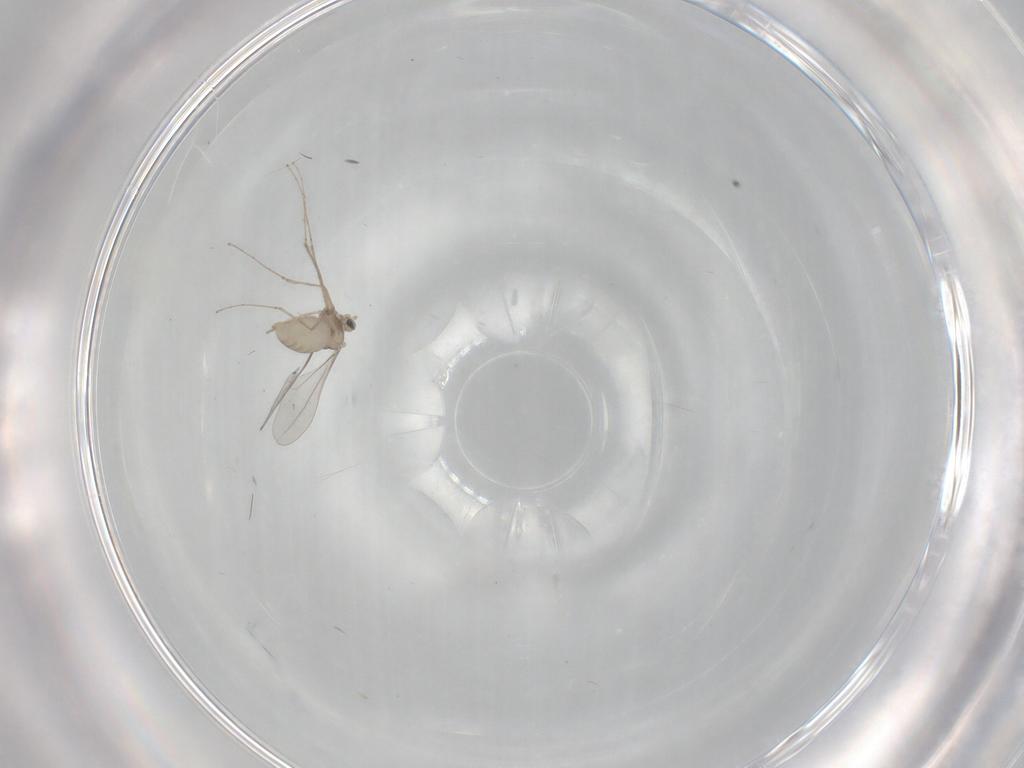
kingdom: Animalia
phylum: Arthropoda
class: Insecta
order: Diptera
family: Cecidomyiidae
